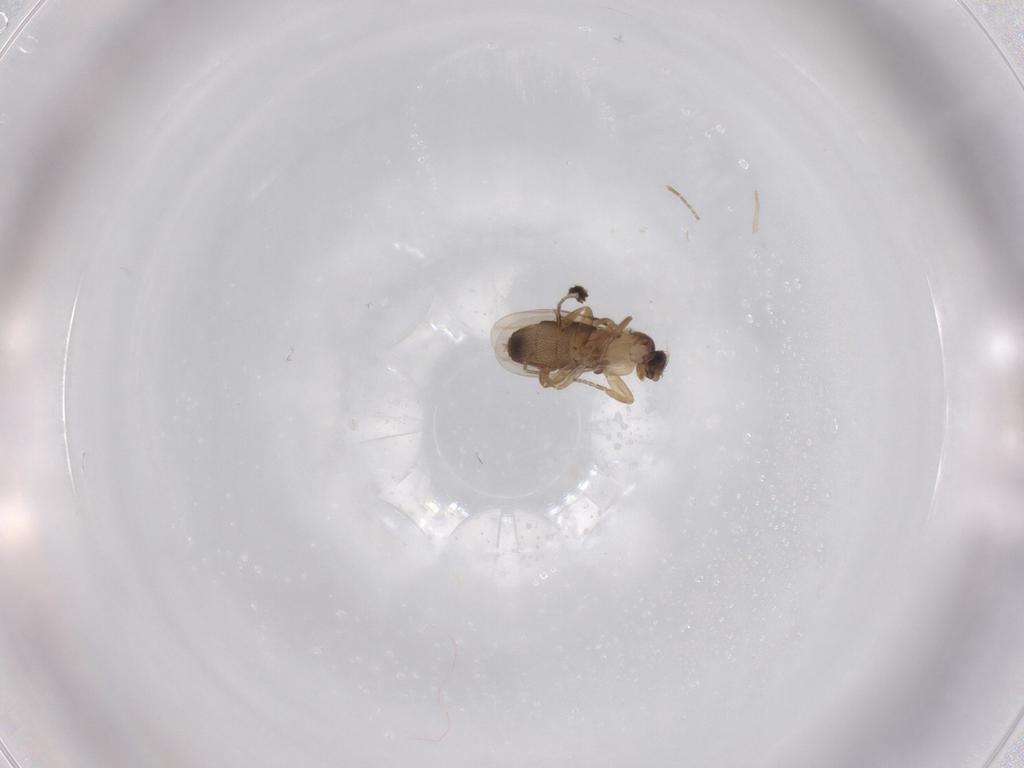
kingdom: Animalia
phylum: Arthropoda
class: Insecta
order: Diptera
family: Phoridae
